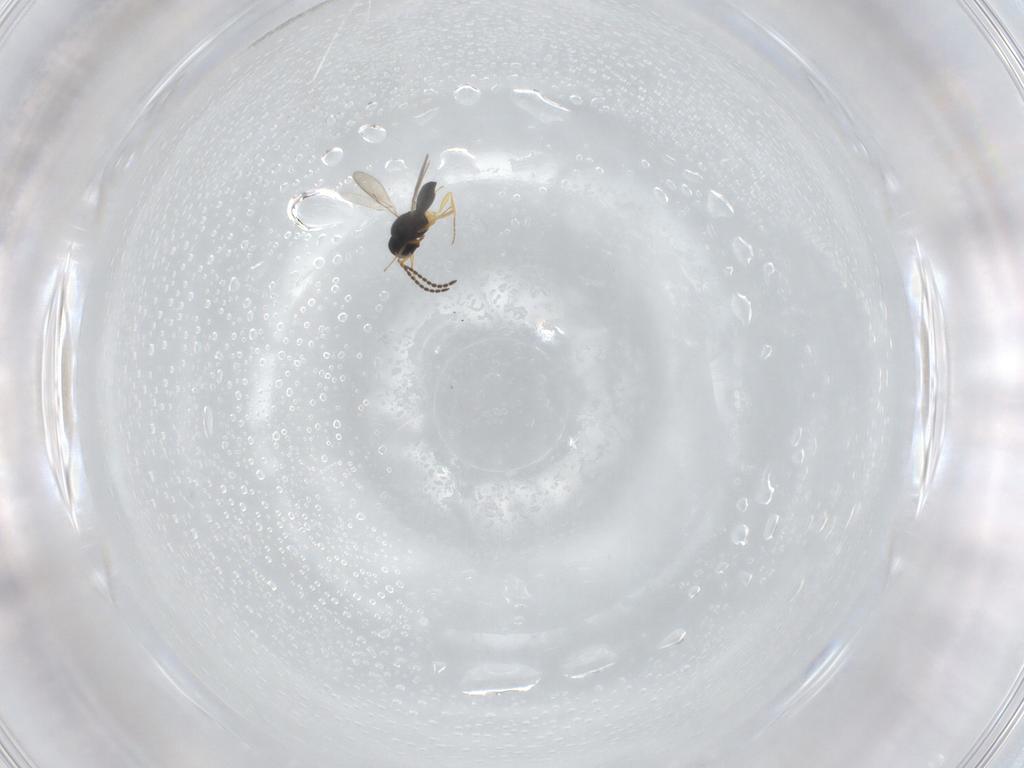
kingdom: Animalia
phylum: Arthropoda
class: Insecta
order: Hymenoptera
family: Scelionidae
